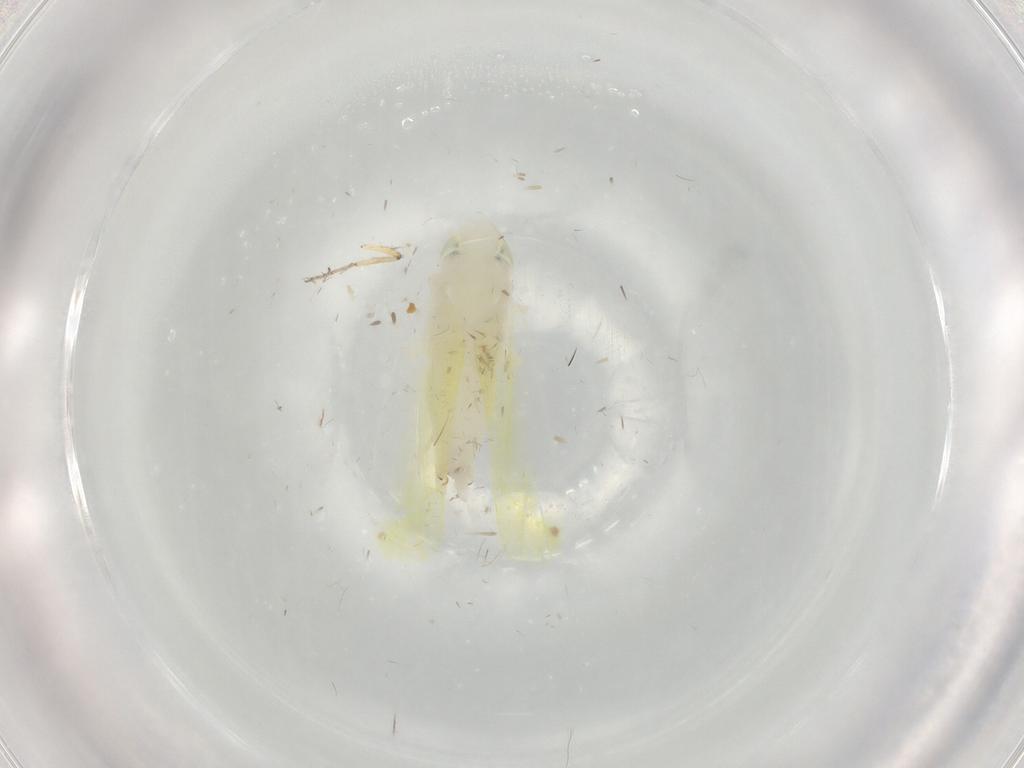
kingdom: Animalia
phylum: Arthropoda
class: Insecta
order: Hemiptera
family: Cicadellidae
